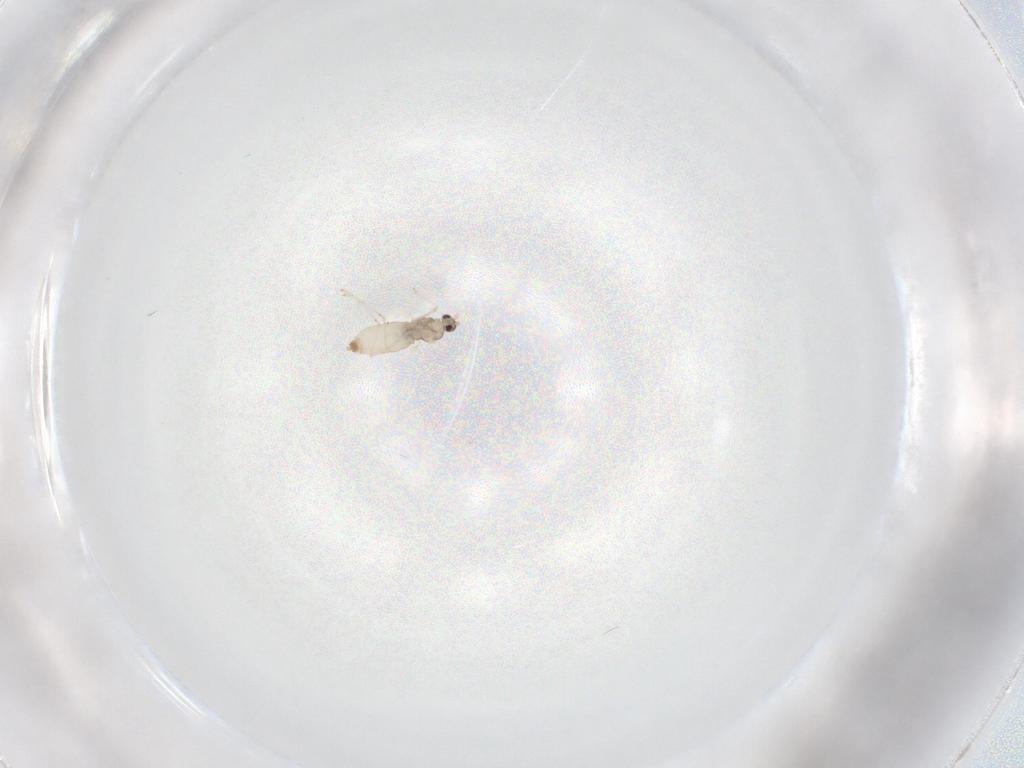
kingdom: Animalia
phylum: Arthropoda
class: Insecta
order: Diptera
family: Cecidomyiidae
